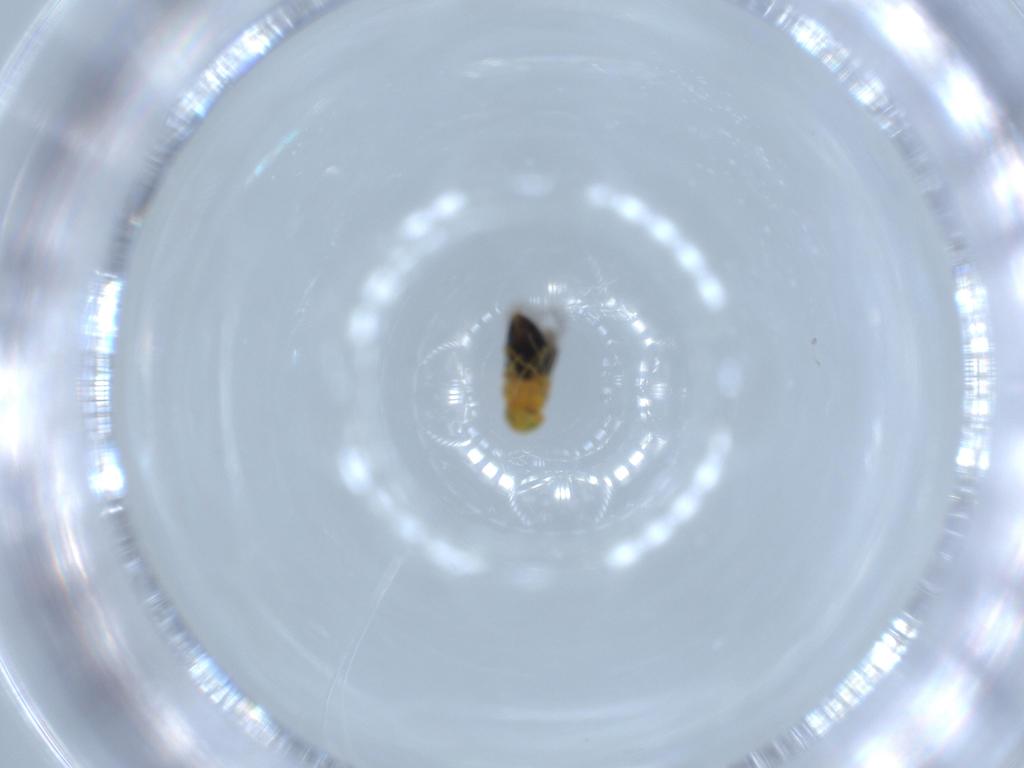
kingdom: Animalia
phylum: Arthropoda
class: Insecta
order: Hymenoptera
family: Signiphoridae
